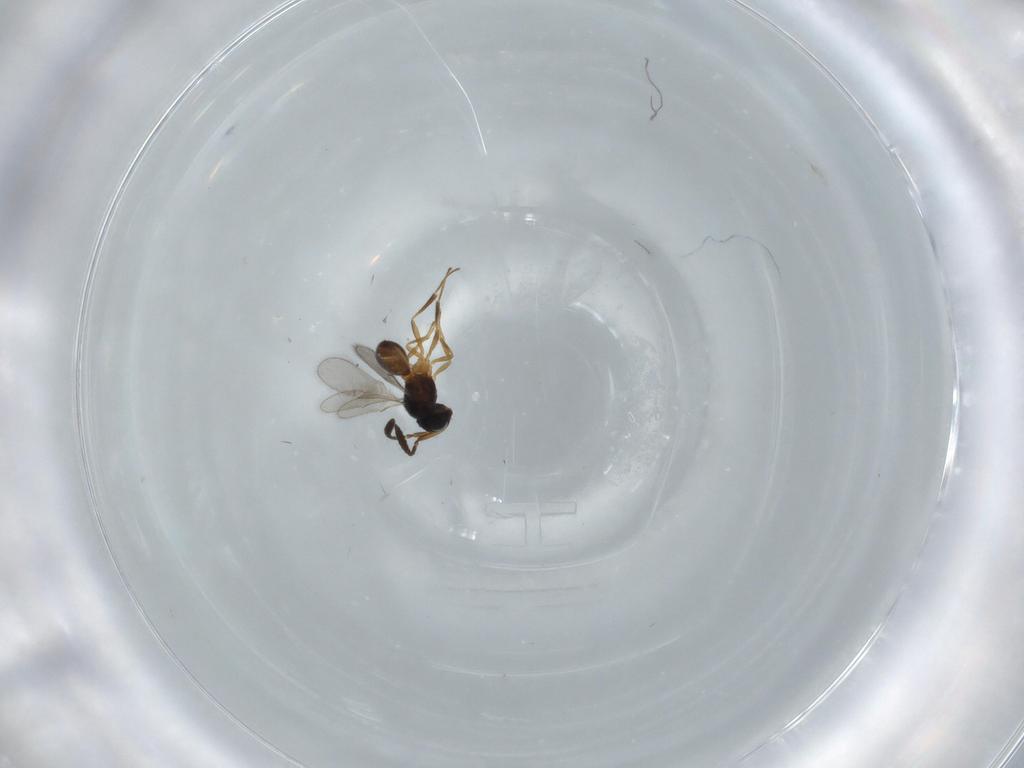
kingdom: Animalia
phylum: Arthropoda
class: Insecta
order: Hymenoptera
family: Scelionidae
